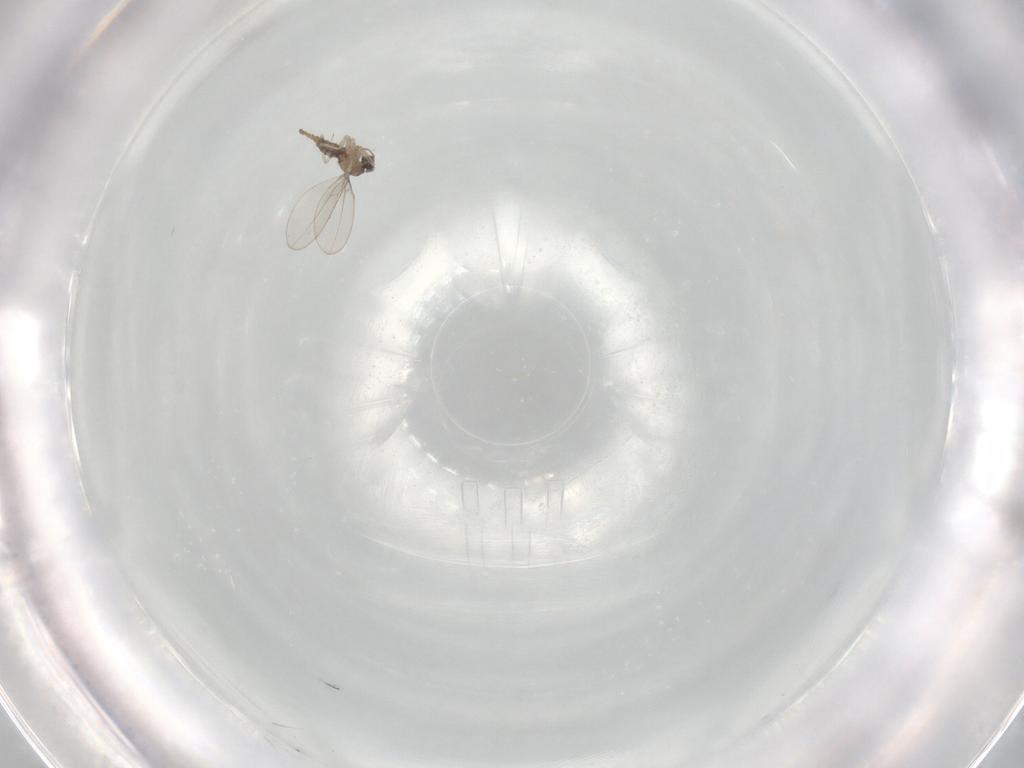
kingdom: Animalia
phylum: Arthropoda
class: Insecta
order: Diptera
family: Cecidomyiidae
